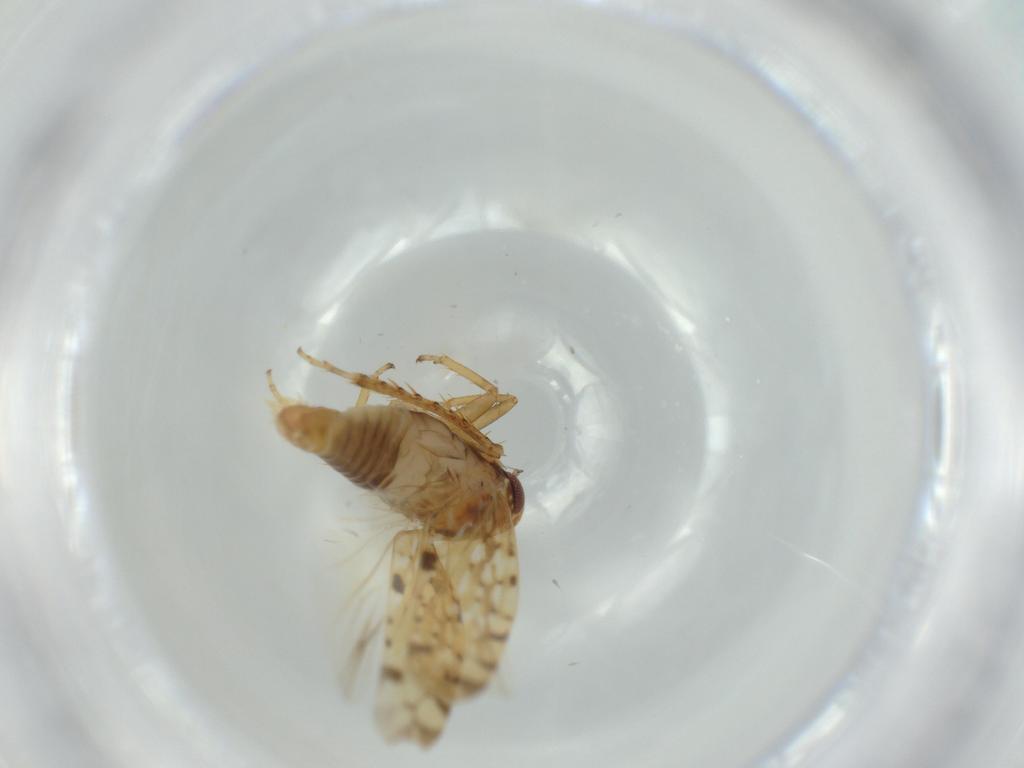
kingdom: Animalia
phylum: Arthropoda
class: Insecta
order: Hemiptera
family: Cicadellidae
